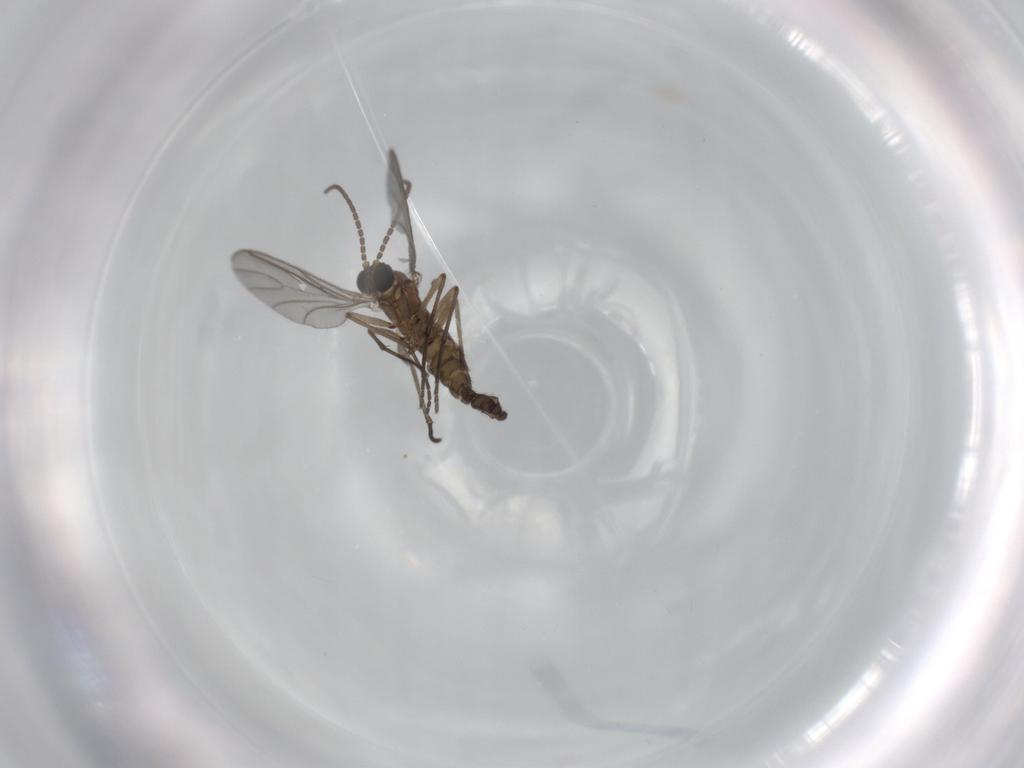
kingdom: Animalia
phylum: Arthropoda
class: Insecta
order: Diptera
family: Sciaridae
